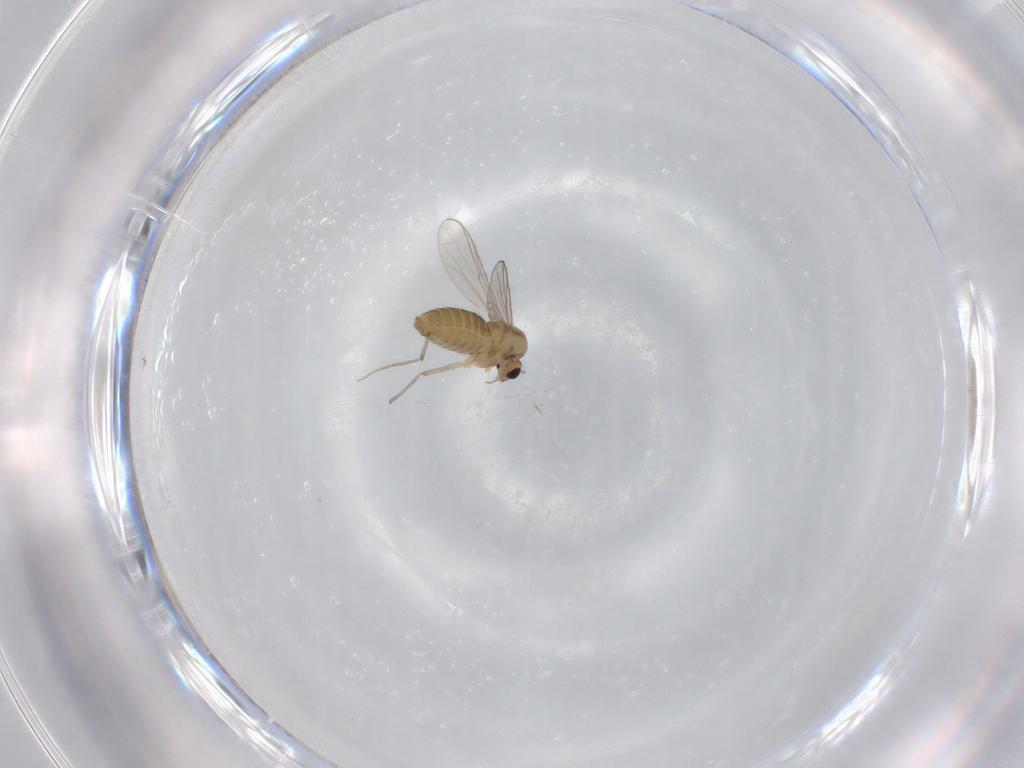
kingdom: Animalia
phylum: Arthropoda
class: Insecta
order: Diptera
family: Chironomidae
